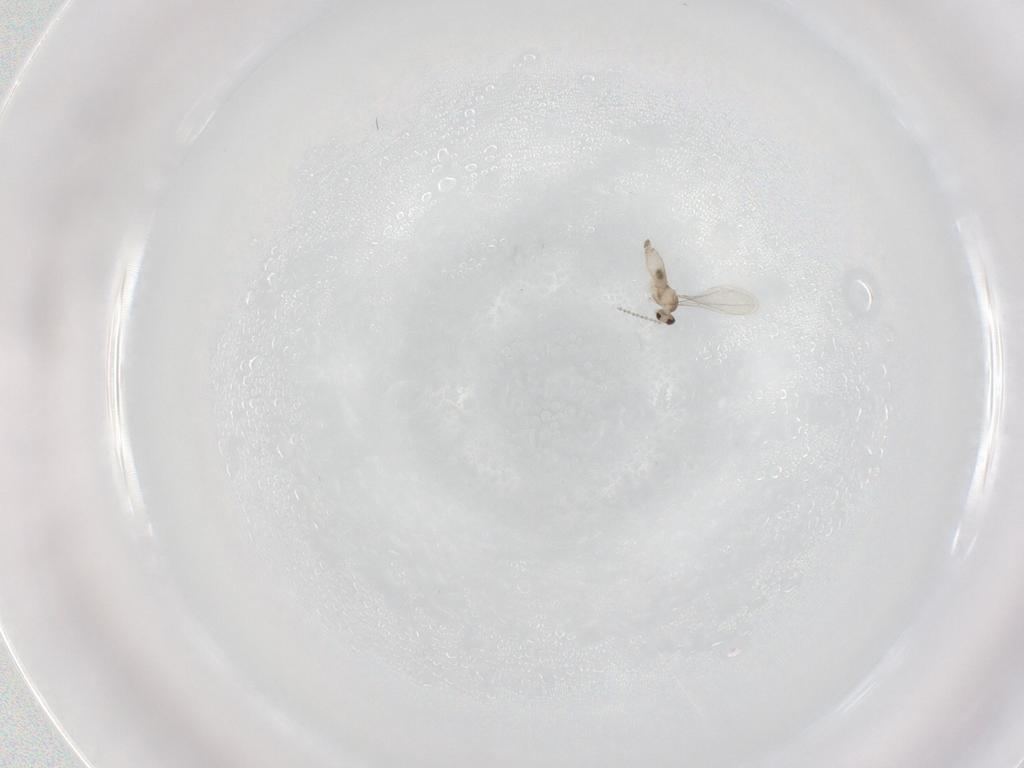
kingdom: Animalia
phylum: Arthropoda
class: Insecta
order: Diptera
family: Cecidomyiidae
